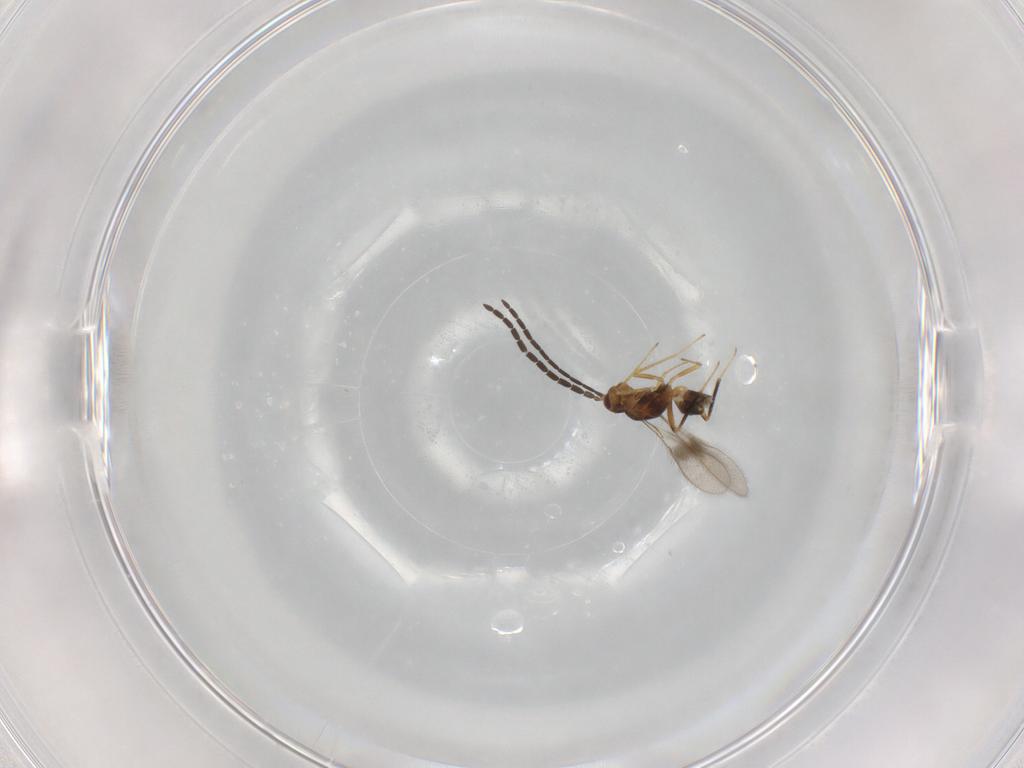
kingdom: Animalia
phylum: Arthropoda
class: Insecta
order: Hymenoptera
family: Mymaridae
